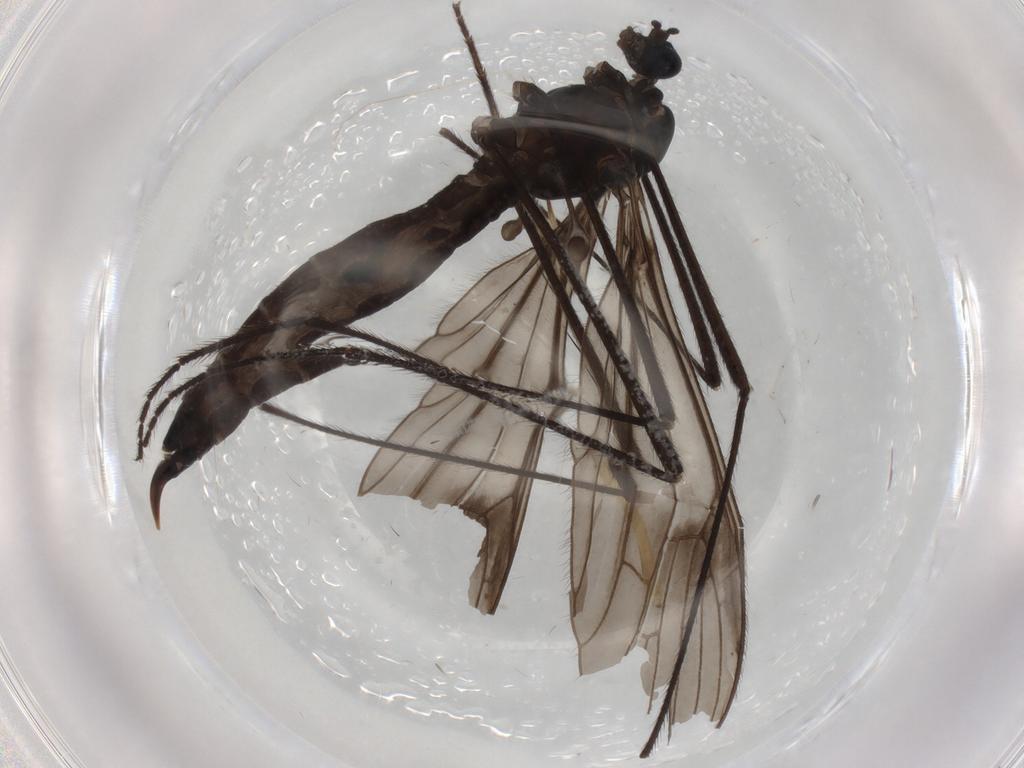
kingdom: Animalia
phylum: Arthropoda
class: Insecta
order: Diptera
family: Limoniidae
